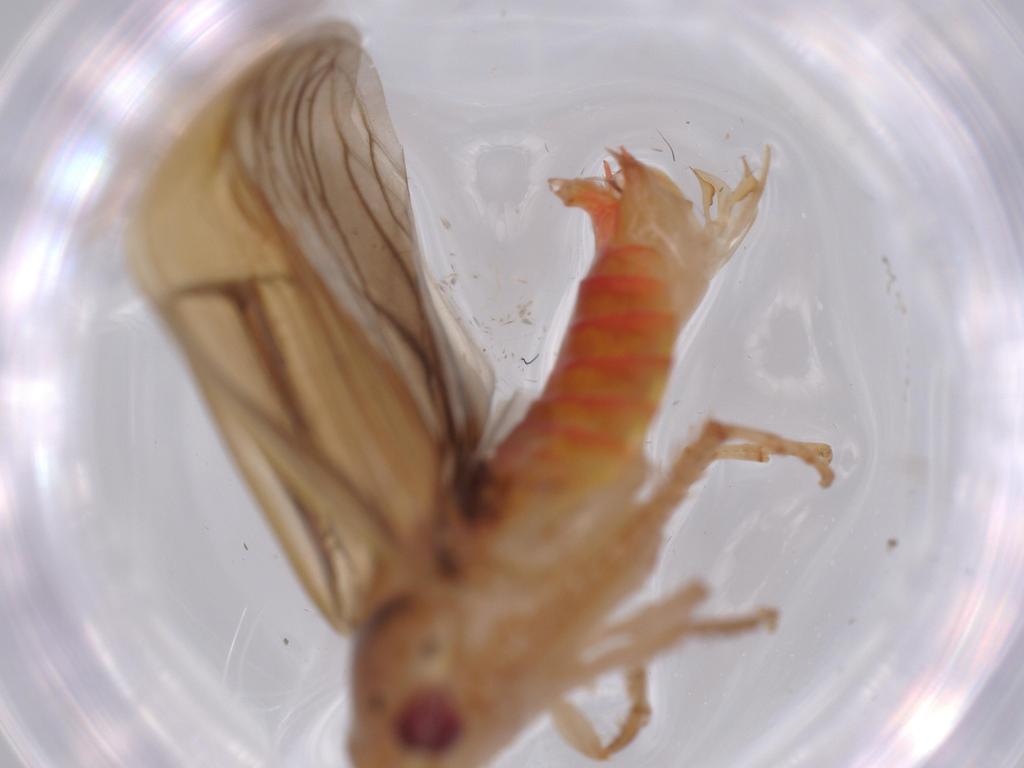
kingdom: Animalia
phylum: Arthropoda
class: Insecta
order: Hemiptera
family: Cicadellidae
